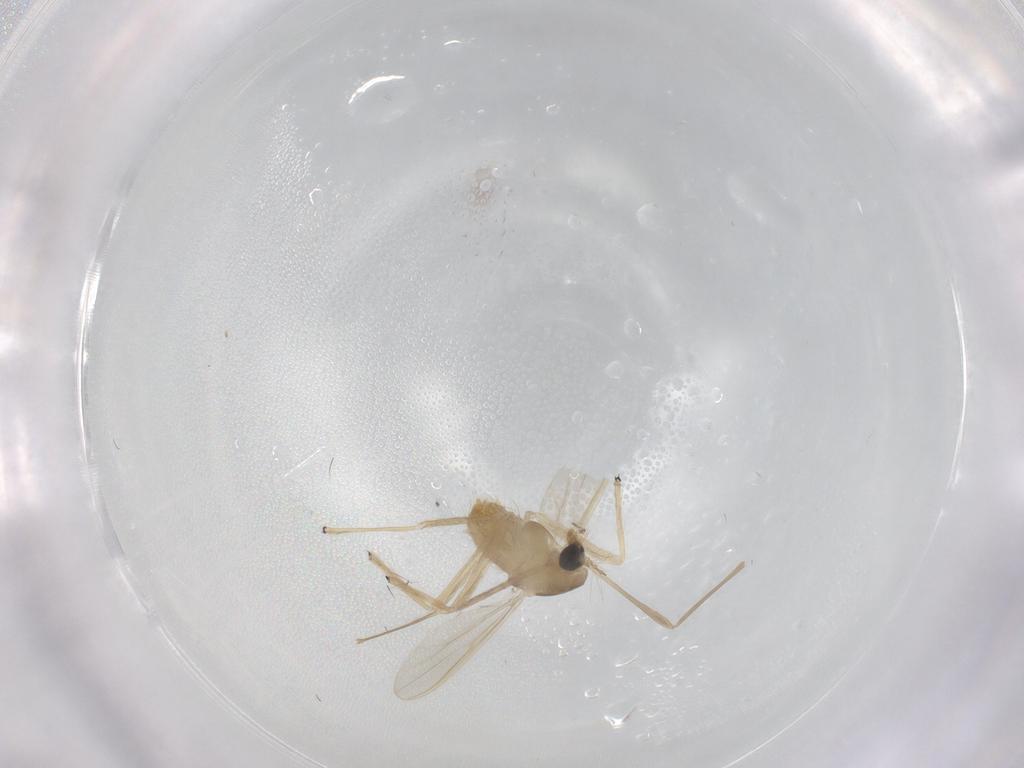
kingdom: Animalia
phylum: Arthropoda
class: Insecta
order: Diptera
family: Chironomidae
